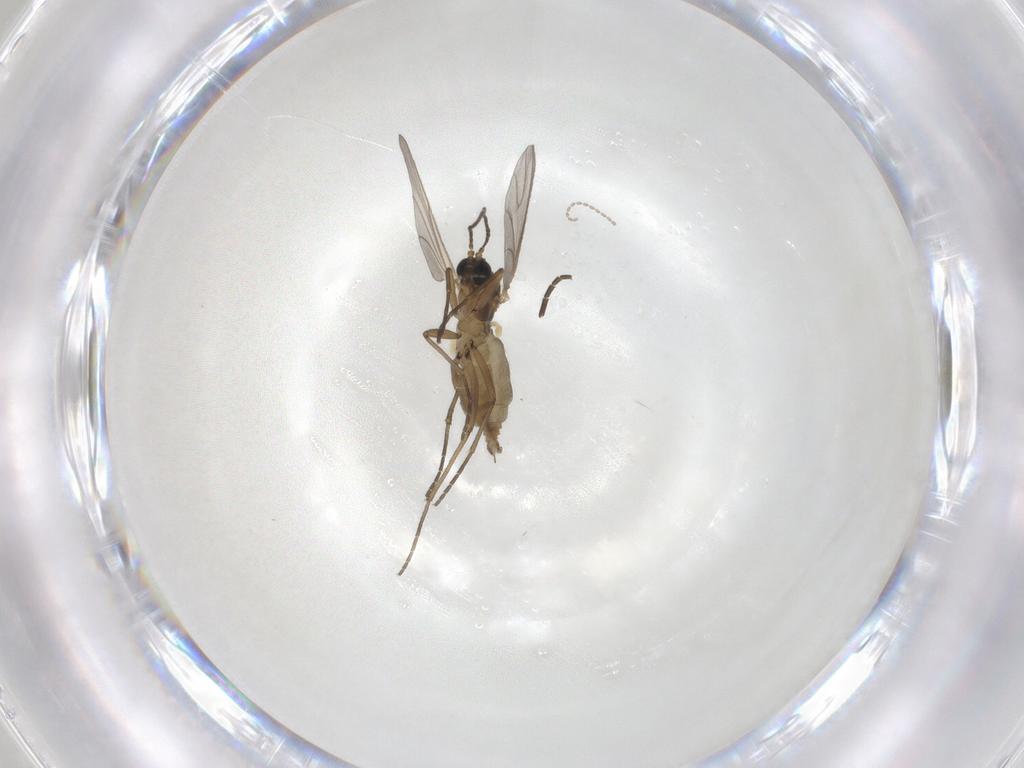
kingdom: Animalia
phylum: Arthropoda
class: Insecta
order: Diptera
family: Sciaridae
